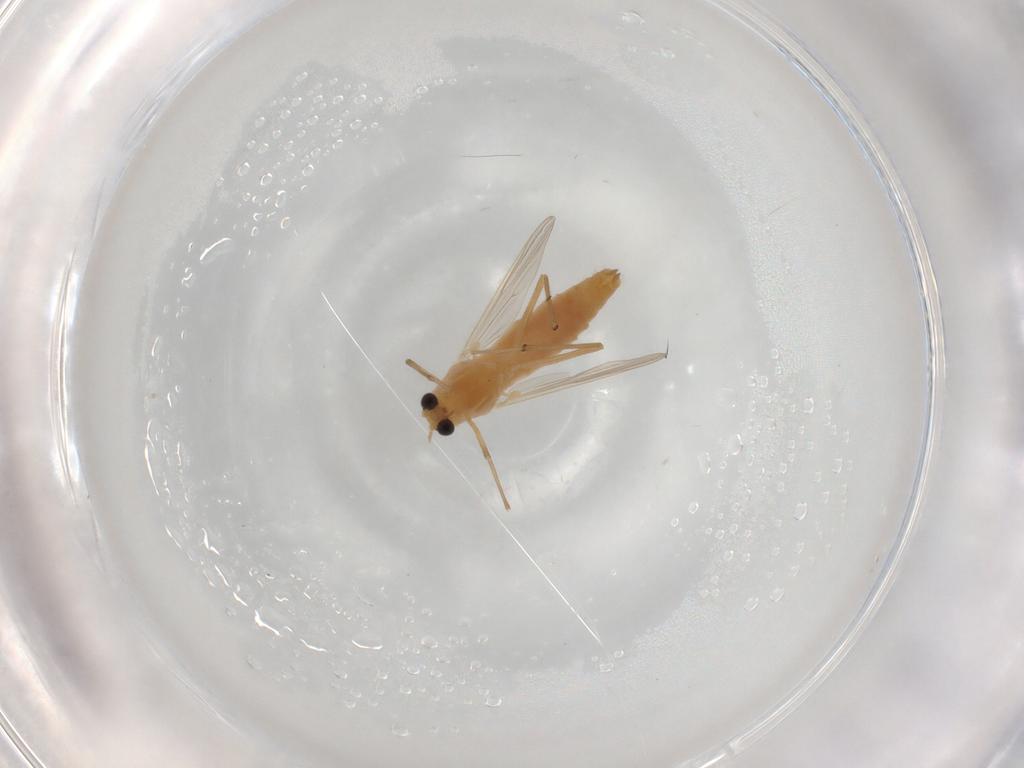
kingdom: Animalia
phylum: Arthropoda
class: Insecta
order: Diptera
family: Chironomidae
